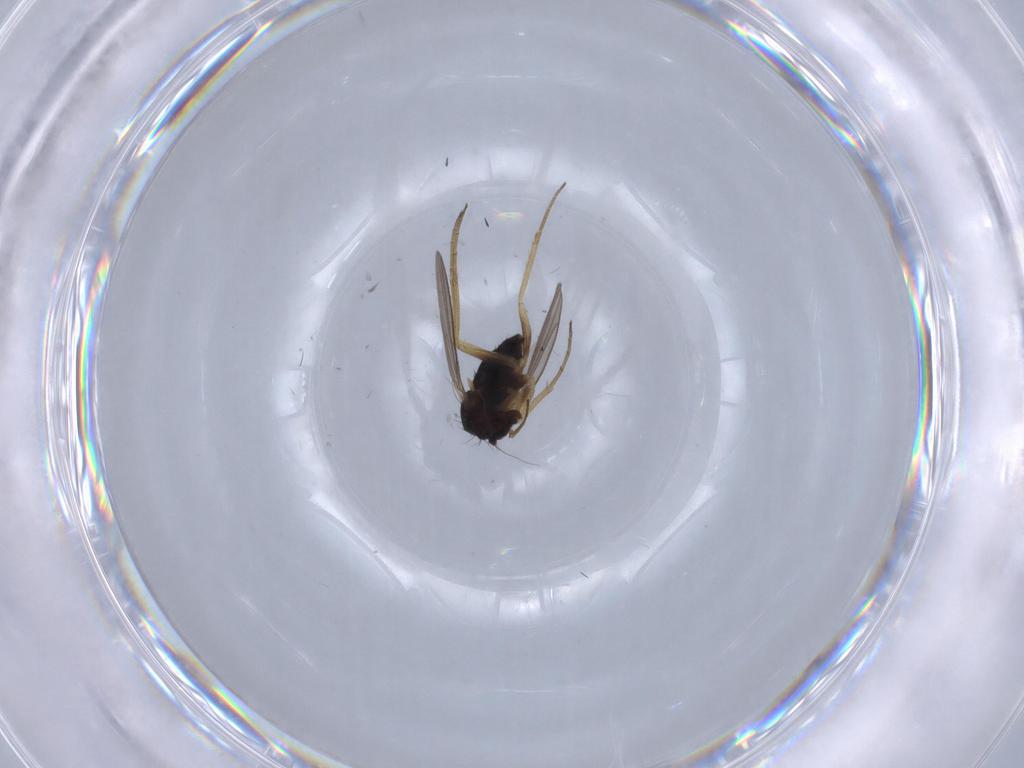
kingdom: Animalia
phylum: Arthropoda
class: Insecta
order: Diptera
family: Dolichopodidae
